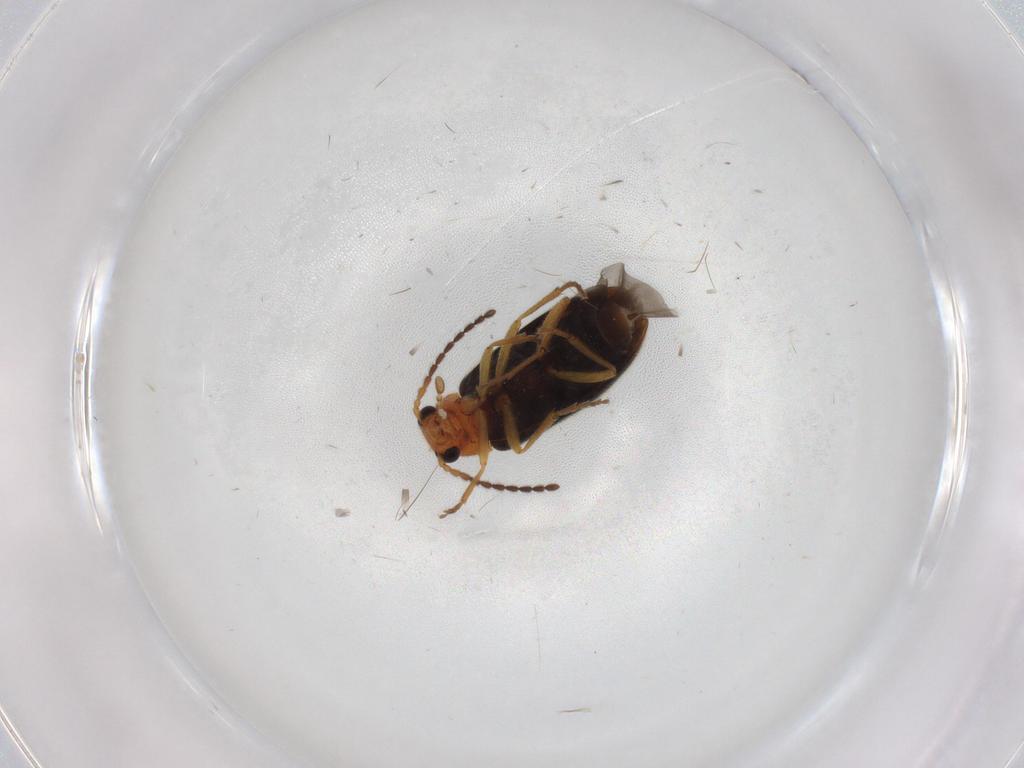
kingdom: Animalia
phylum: Arthropoda
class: Insecta
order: Coleoptera
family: Melandryidae
